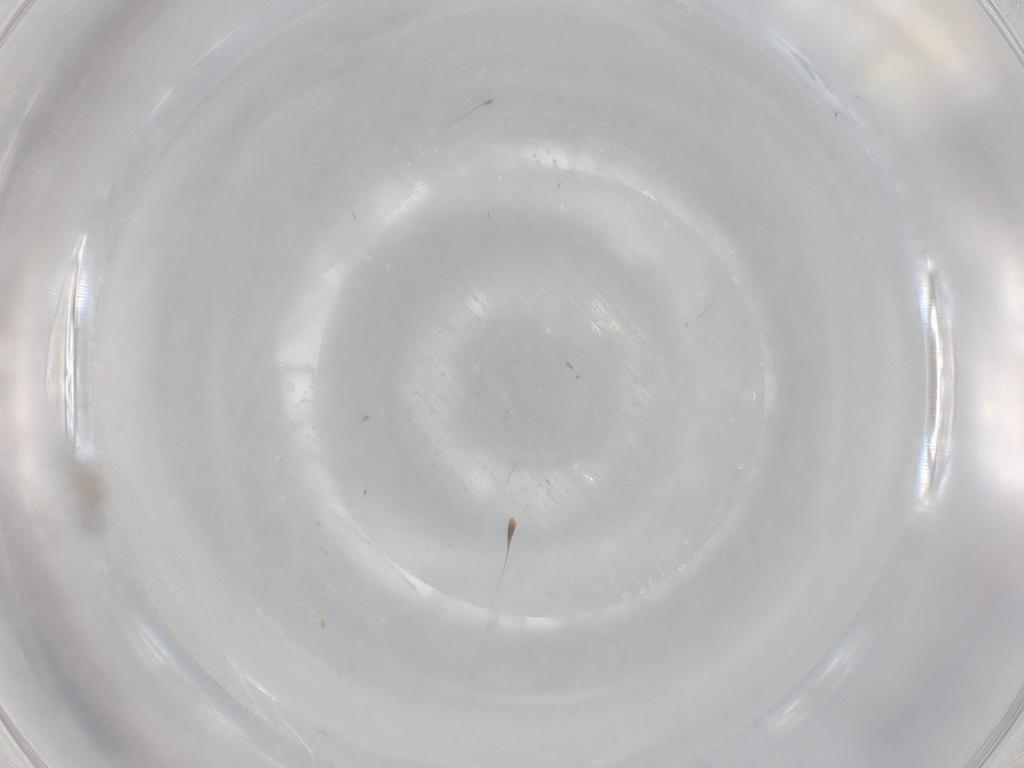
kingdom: Animalia
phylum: Arthropoda
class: Insecta
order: Diptera
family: Cecidomyiidae
